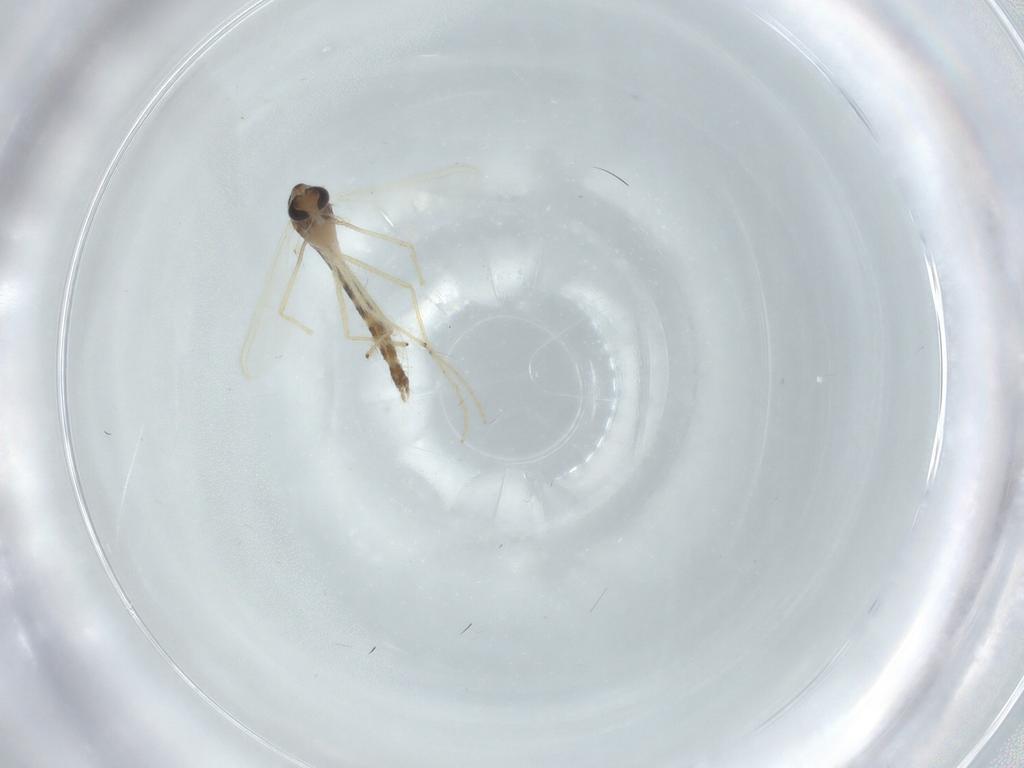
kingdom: Animalia
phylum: Arthropoda
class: Insecta
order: Diptera
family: Chironomidae
